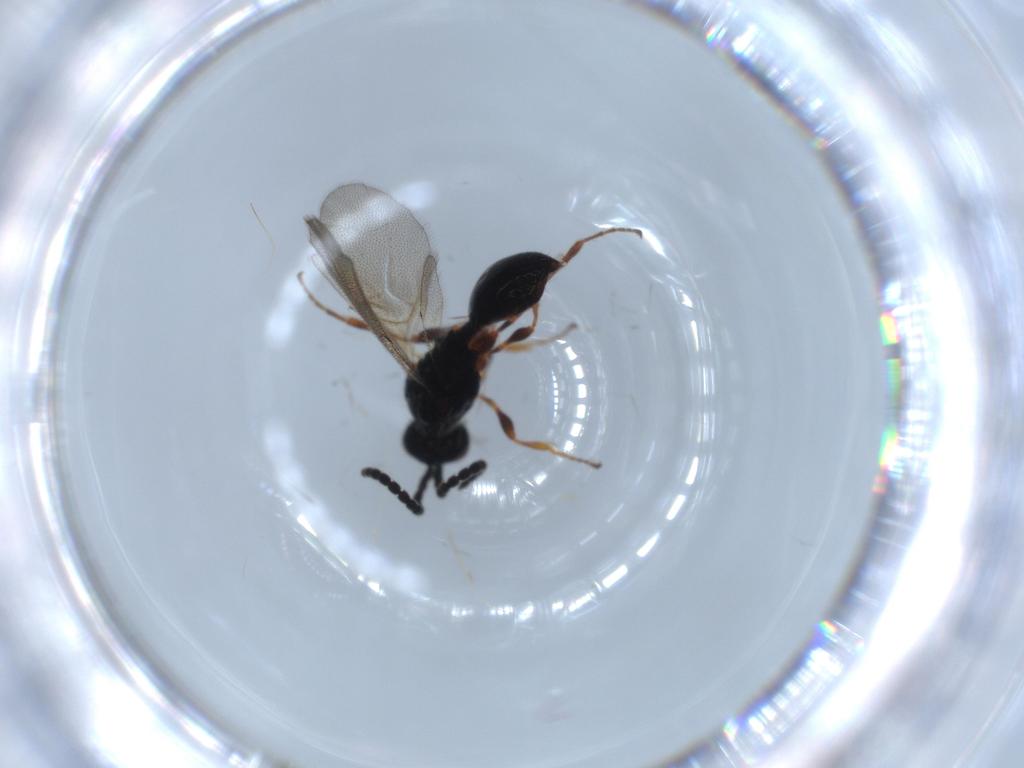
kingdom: Animalia
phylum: Arthropoda
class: Insecta
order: Hymenoptera
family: Diapriidae
